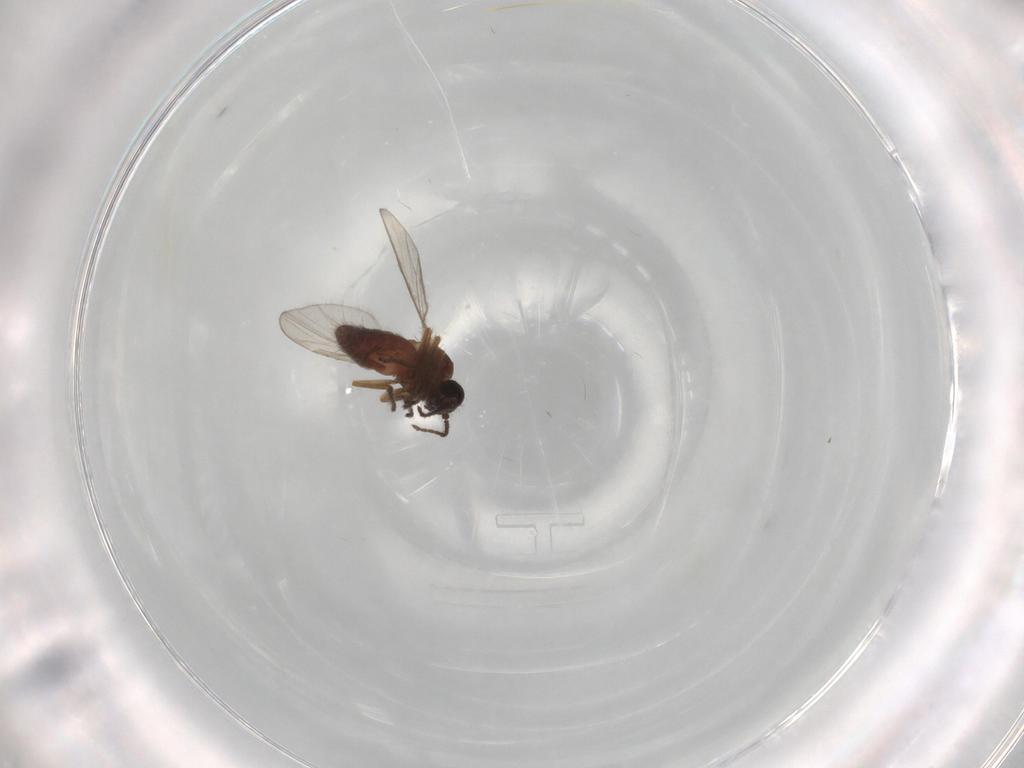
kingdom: Animalia
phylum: Arthropoda
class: Insecta
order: Diptera
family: Ceratopogonidae
